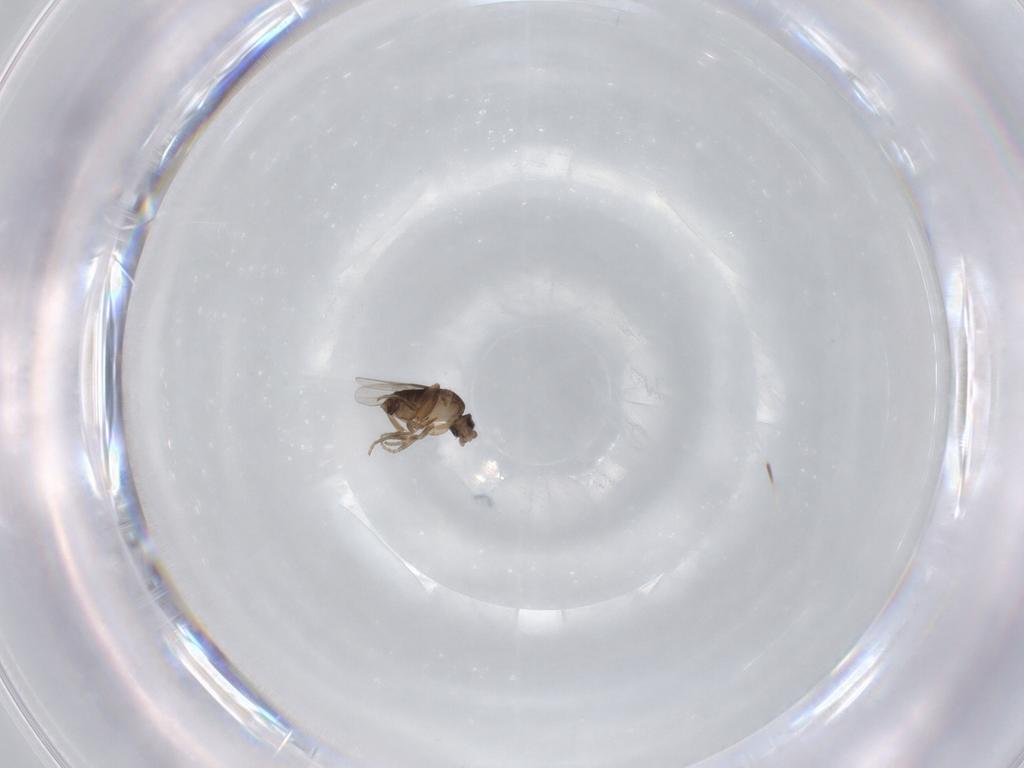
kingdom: Animalia
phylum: Arthropoda
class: Insecta
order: Diptera
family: Phoridae
